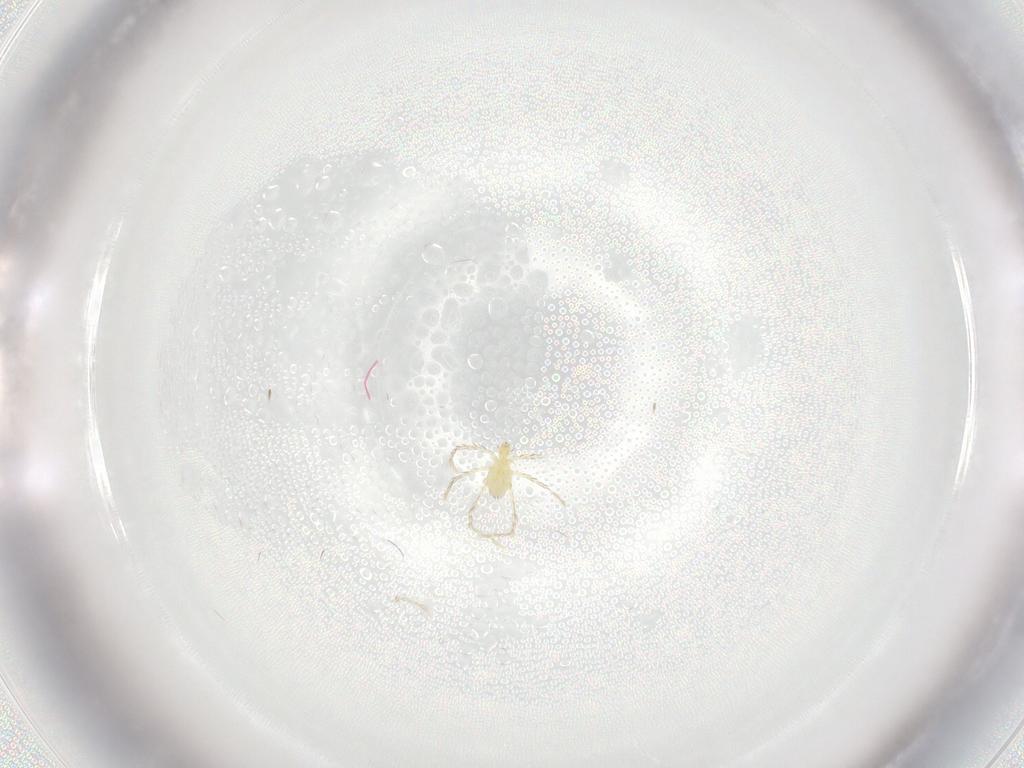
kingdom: Animalia
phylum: Arthropoda
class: Arachnida
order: Trombidiformes
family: Erythraeidae
